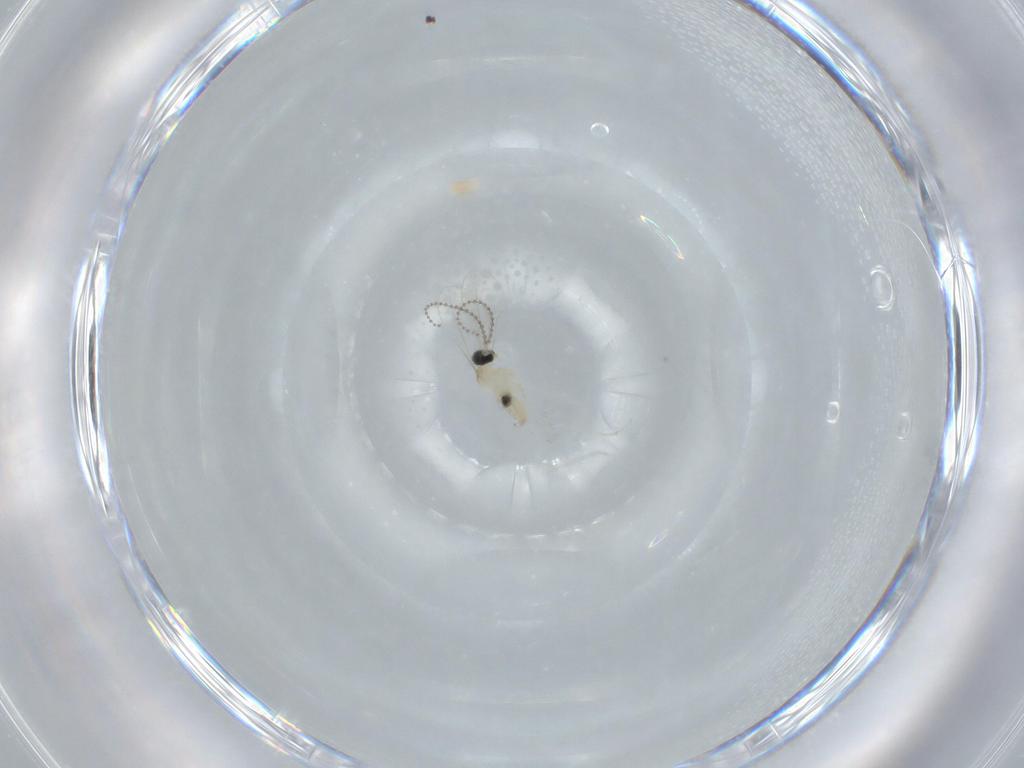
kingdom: Animalia
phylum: Arthropoda
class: Insecta
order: Diptera
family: Cecidomyiidae
